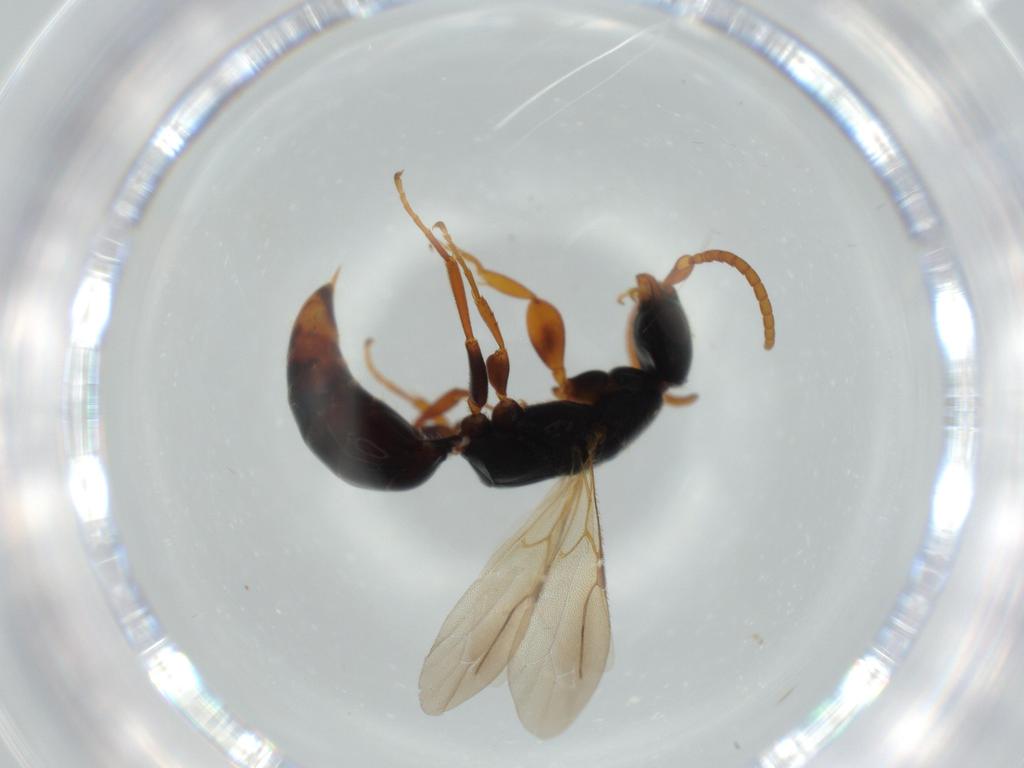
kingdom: Animalia
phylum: Arthropoda
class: Insecta
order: Hymenoptera
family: Bethylidae
